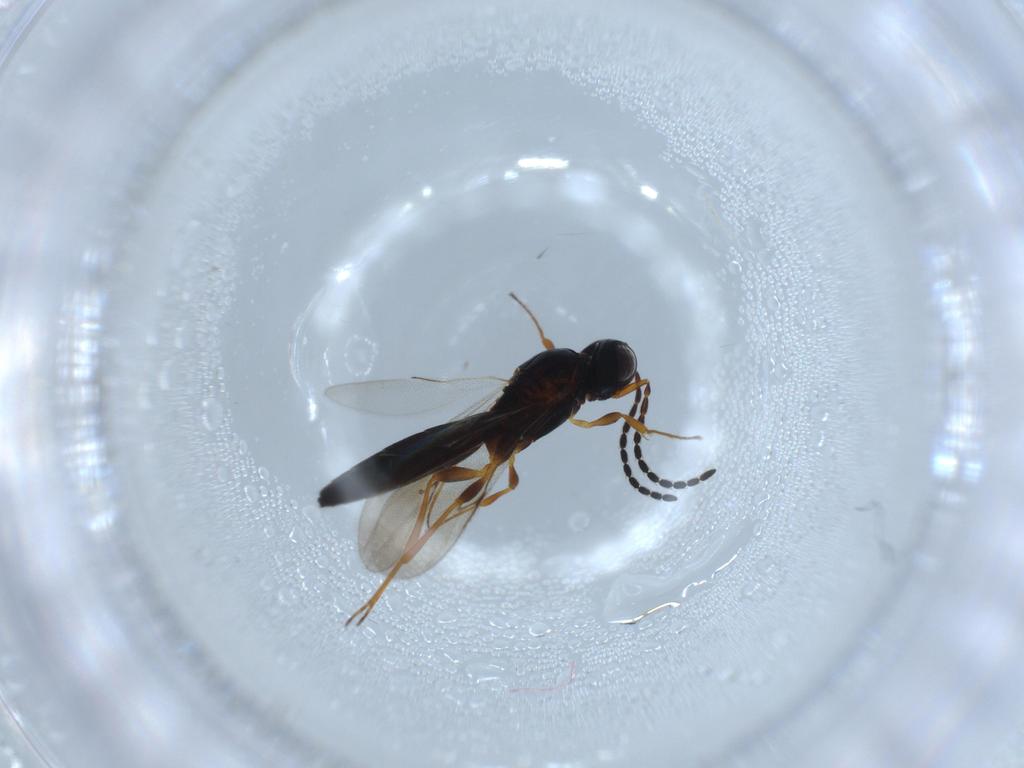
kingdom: Animalia
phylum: Arthropoda
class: Insecta
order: Hymenoptera
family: Scelionidae
